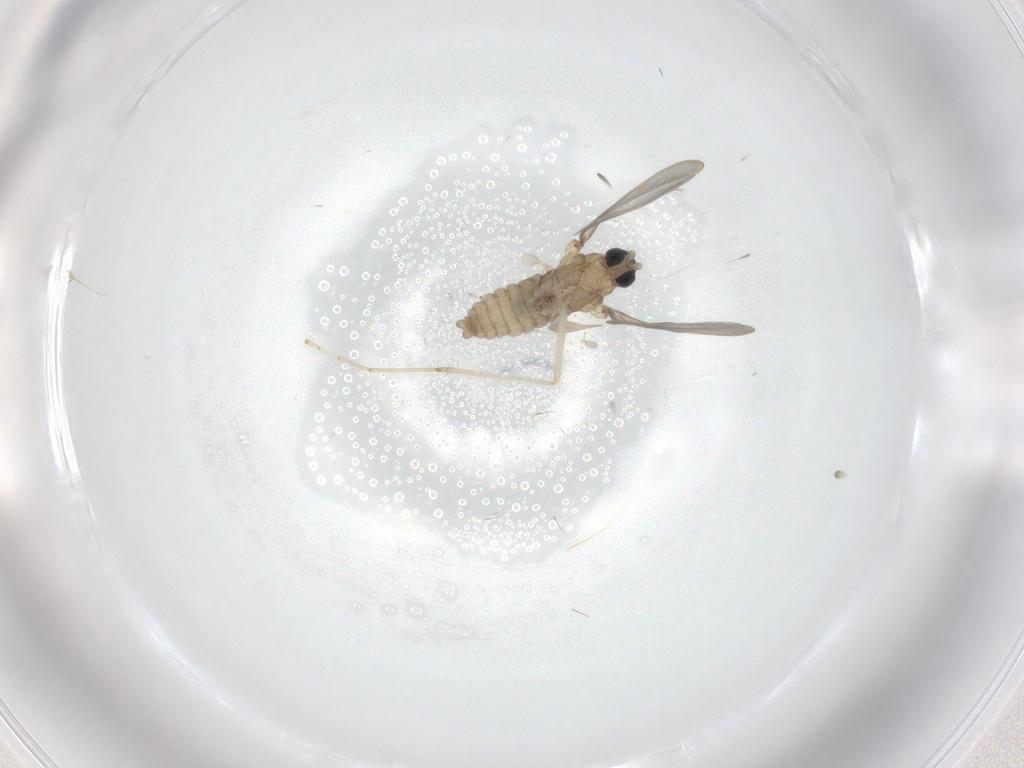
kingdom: Animalia
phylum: Arthropoda
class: Insecta
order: Diptera
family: Cecidomyiidae
